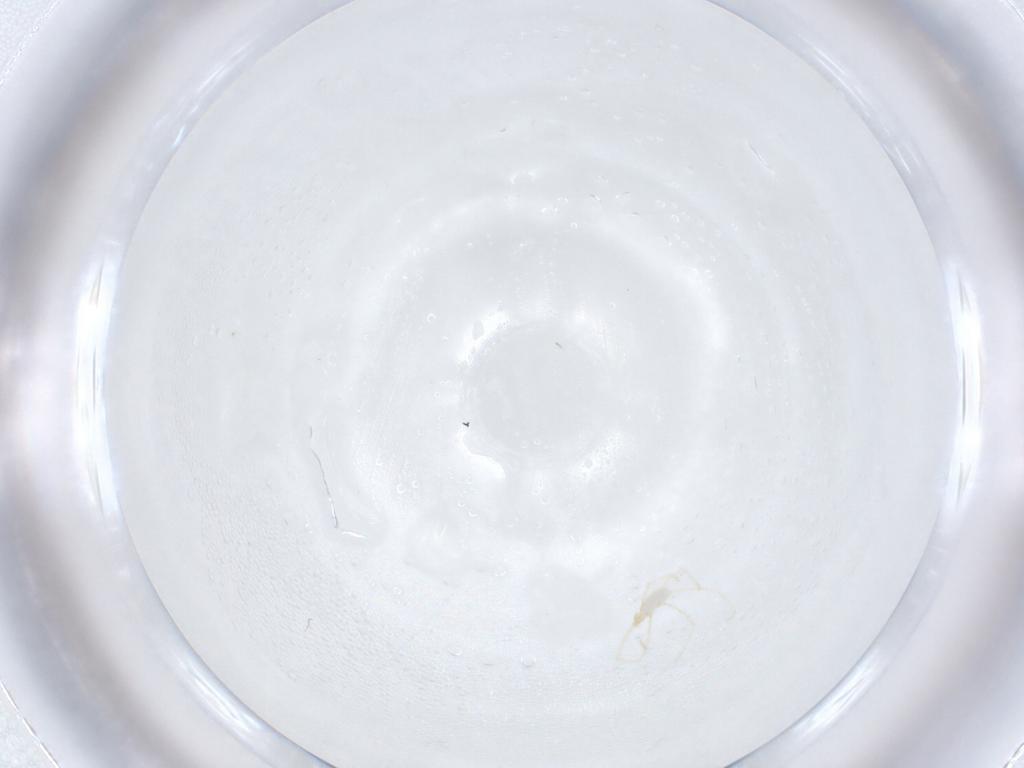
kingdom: Animalia
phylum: Arthropoda
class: Arachnida
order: Trombidiformes
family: Erythraeidae
